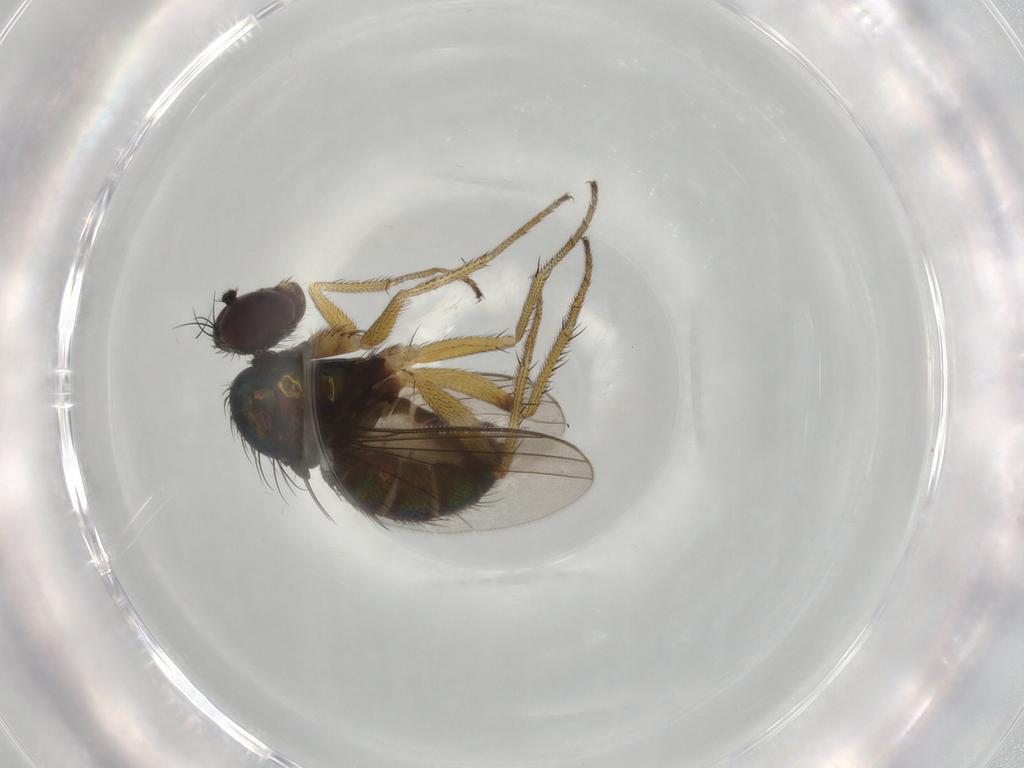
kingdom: Animalia
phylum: Arthropoda
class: Insecta
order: Diptera
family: Dolichopodidae
